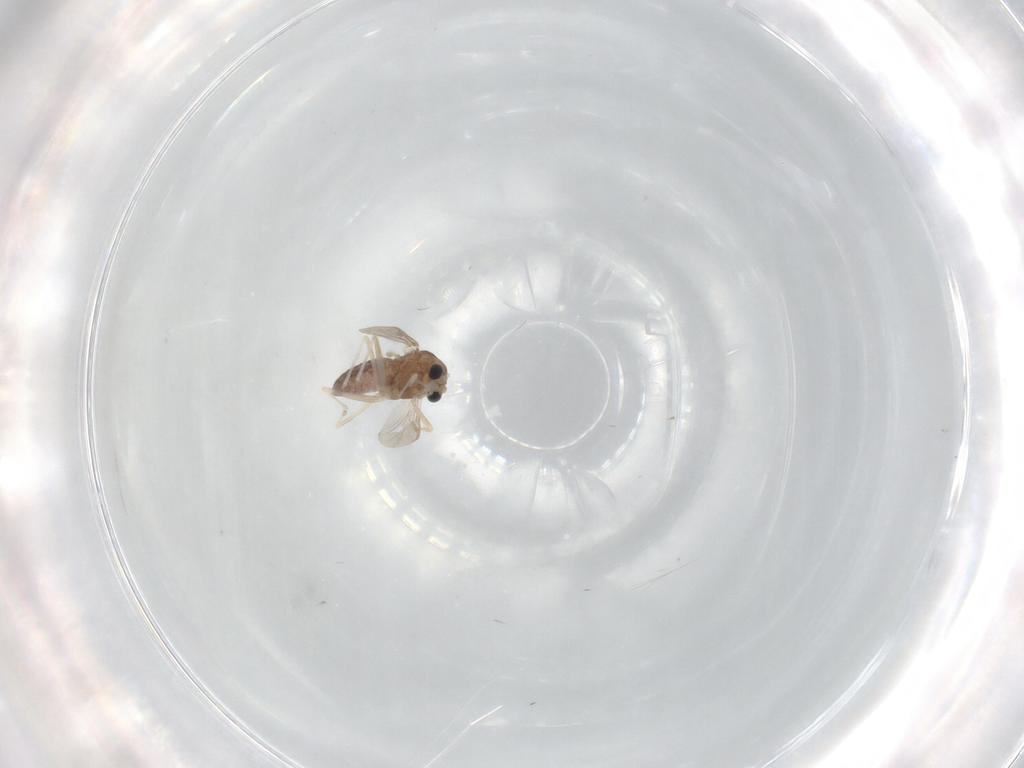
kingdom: Animalia
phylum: Arthropoda
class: Insecta
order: Diptera
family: Chironomidae
